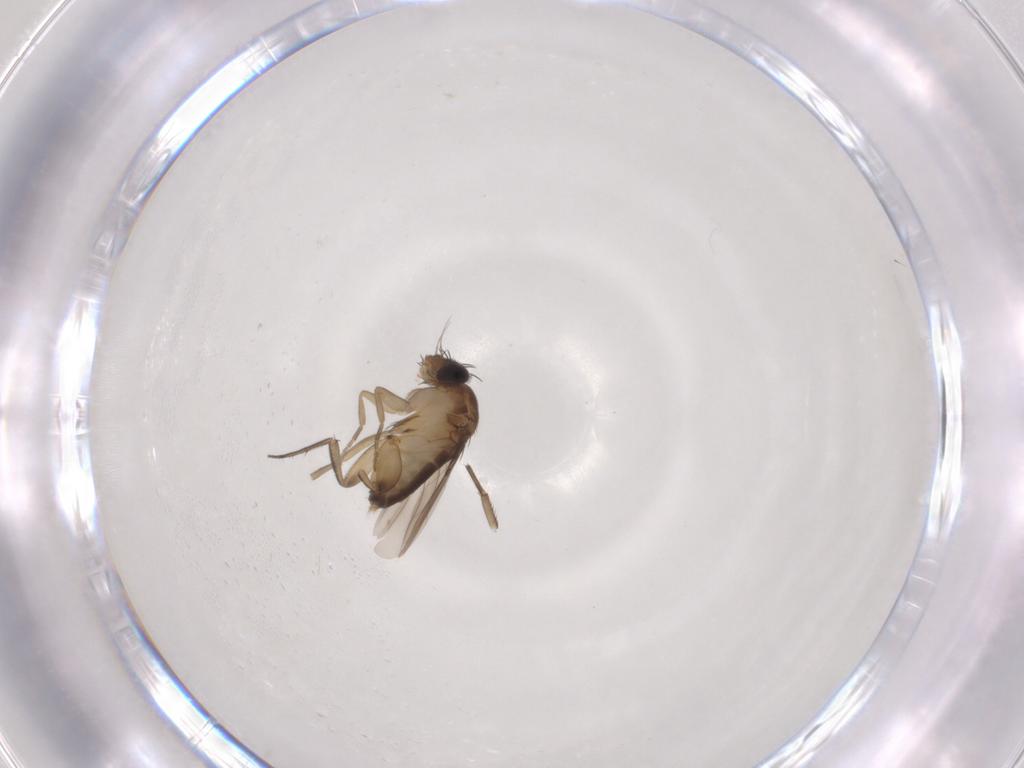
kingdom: Animalia
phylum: Arthropoda
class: Insecta
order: Diptera
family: Phoridae
